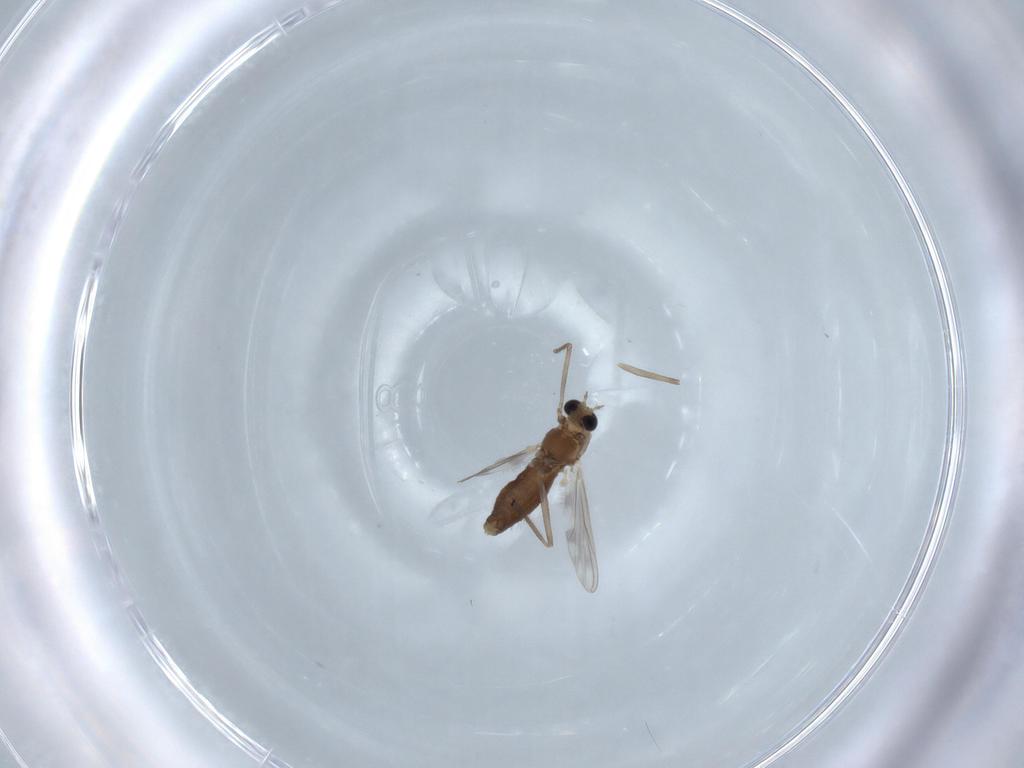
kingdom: Animalia
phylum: Arthropoda
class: Insecta
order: Diptera
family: Chironomidae
